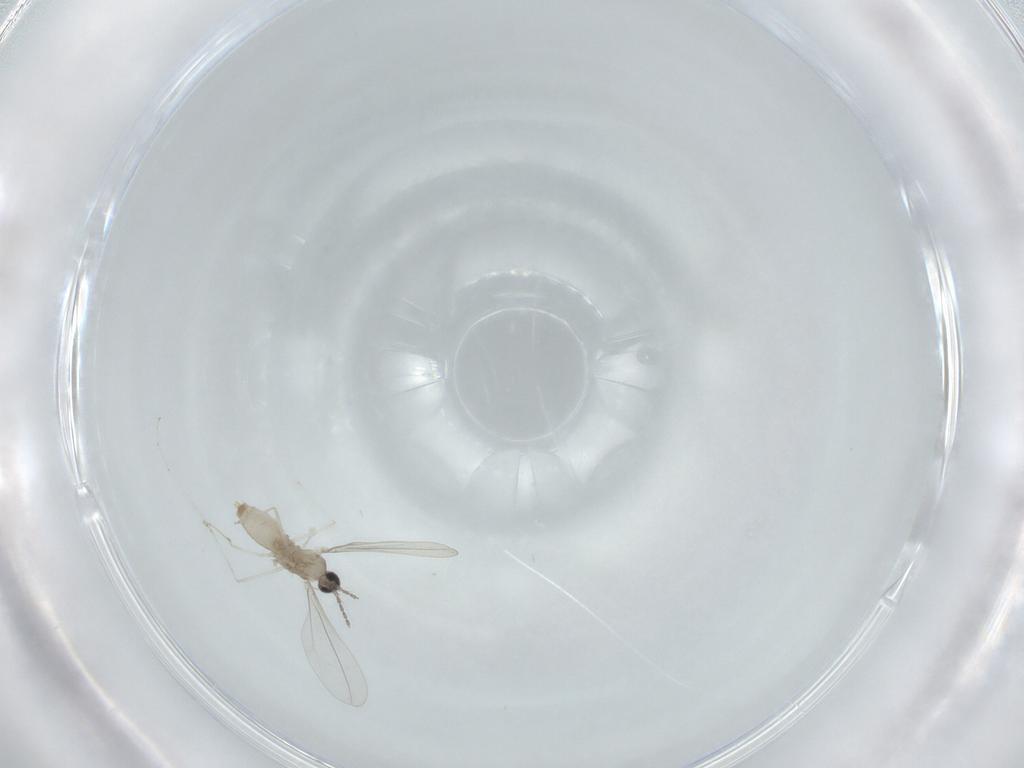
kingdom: Animalia
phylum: Arthropoda
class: Insecta
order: Diptera
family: Cecidomyiidae
